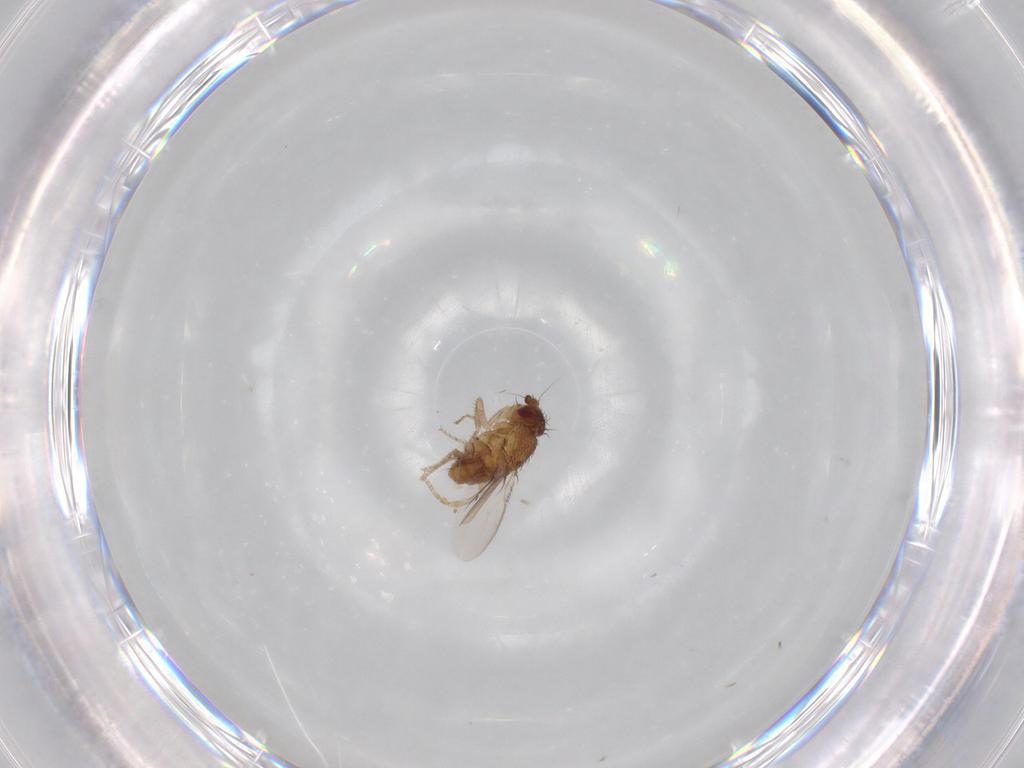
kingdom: Animalia
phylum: Arthropoda
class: Insecta
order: Diptera
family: Sphaeroceridae
